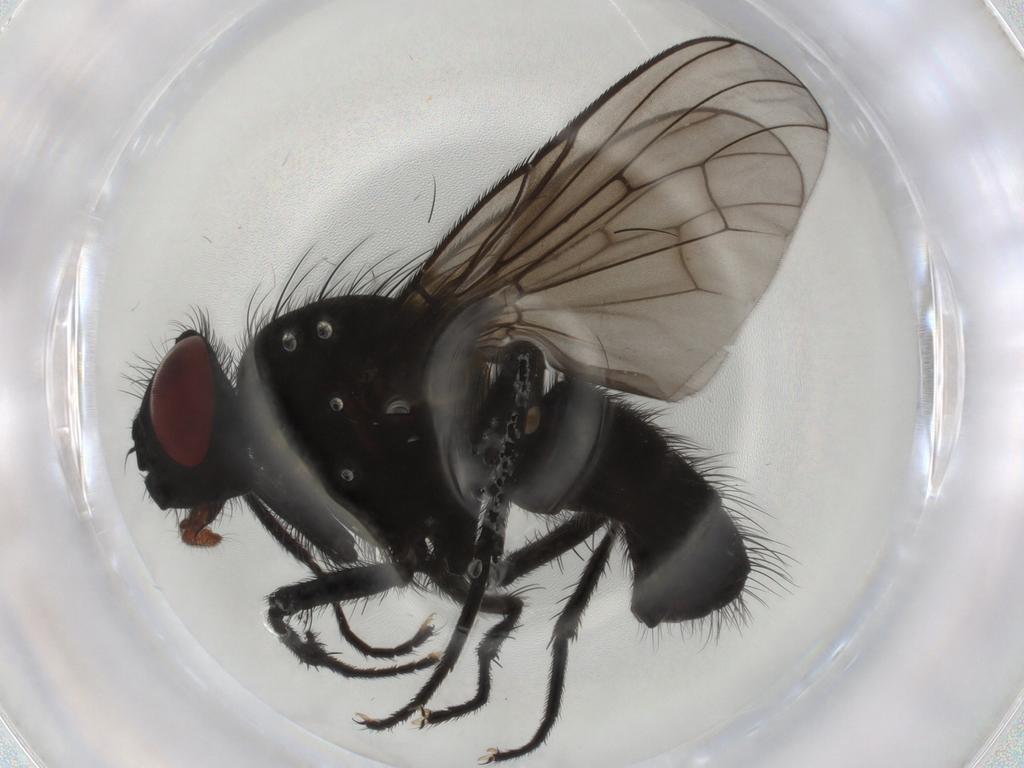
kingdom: Animalia
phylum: Arthropoda
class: Insecta
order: Diptera
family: Muscidae
